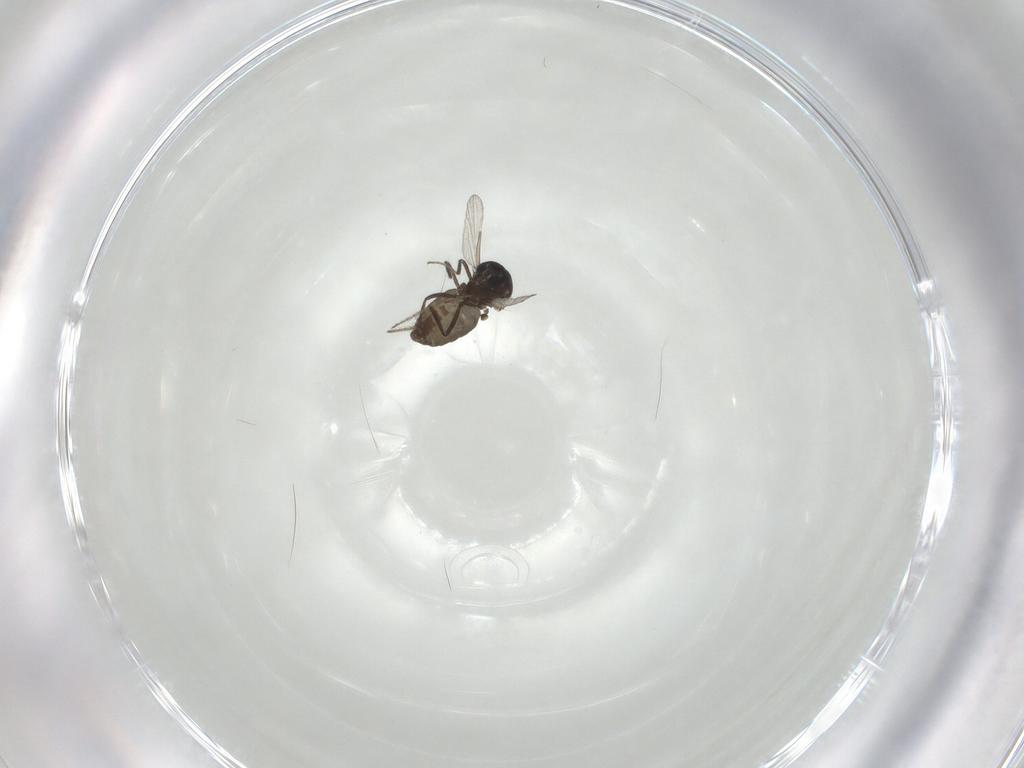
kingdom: Animalia
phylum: Arthropoda
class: Insecta
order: Diptera
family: Ceratopogonidae
